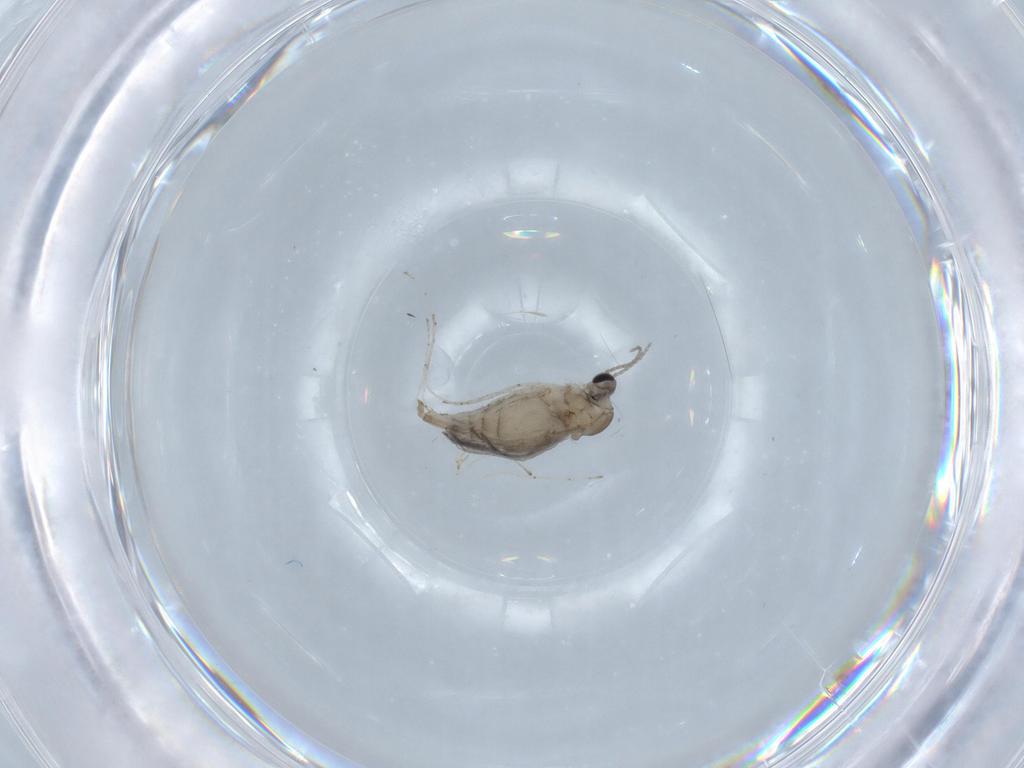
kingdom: Animalia
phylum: Arthropoda
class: Insecta
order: Diptera
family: Cecidomyiidae
